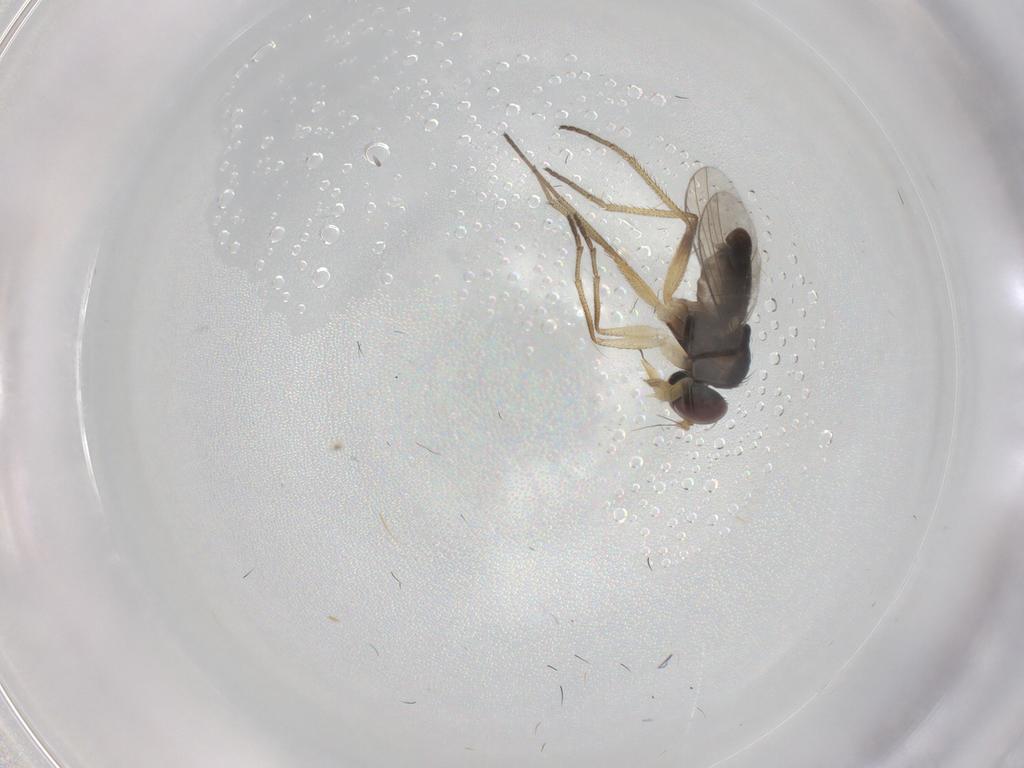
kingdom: Animalia
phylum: Arthropoda
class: Insecta
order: Diptera
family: Dolichopodidae
